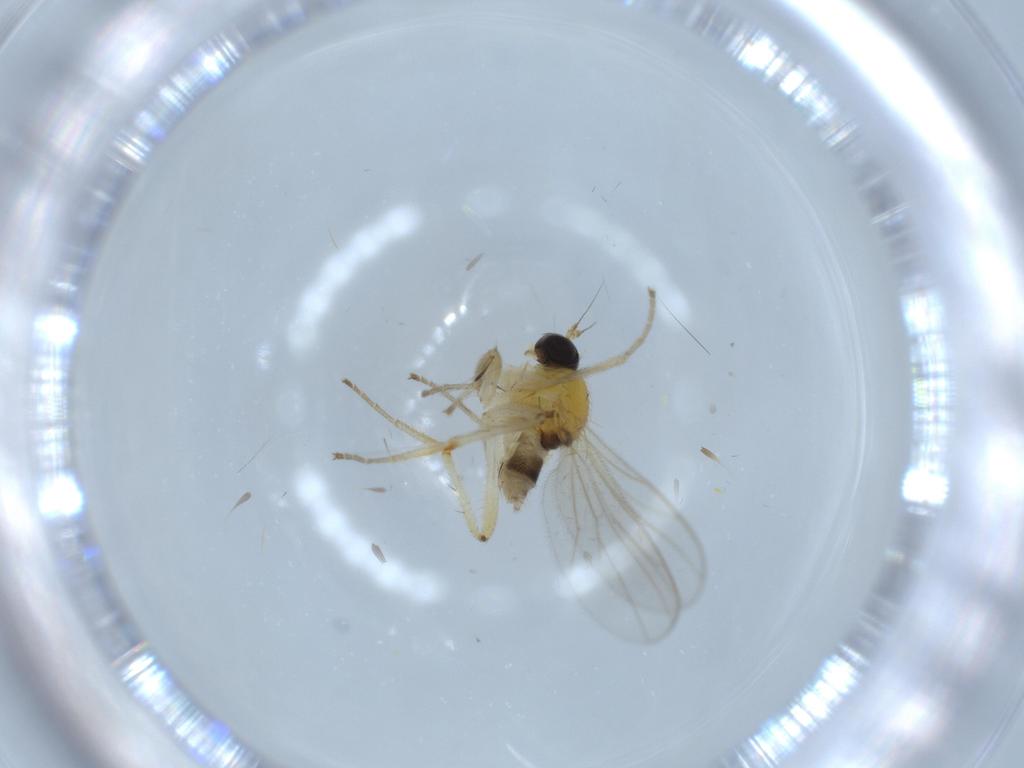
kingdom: Animalia
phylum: Arthropoda
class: Insecta
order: Diptera
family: Hybotidae
